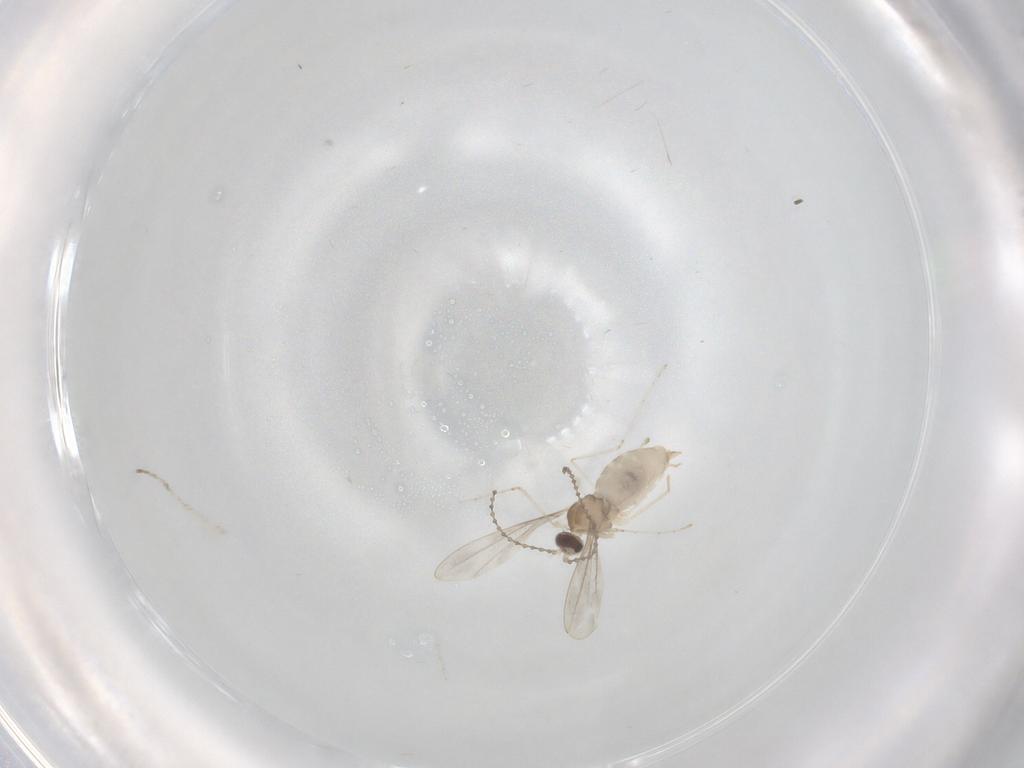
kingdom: Animalia
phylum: Arthropoda
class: Insecta
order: Diptera
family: Cecidomyiidae
